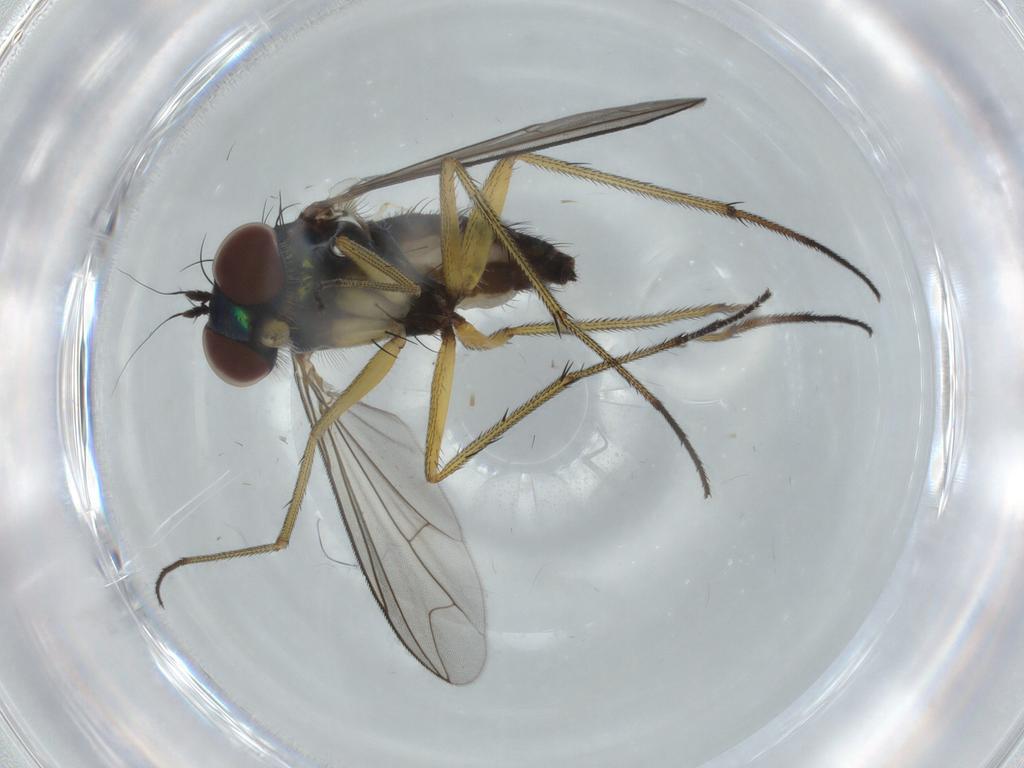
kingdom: Animalia
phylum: Arthropoda
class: Insecta
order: Diptera
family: Dolichopodidae
